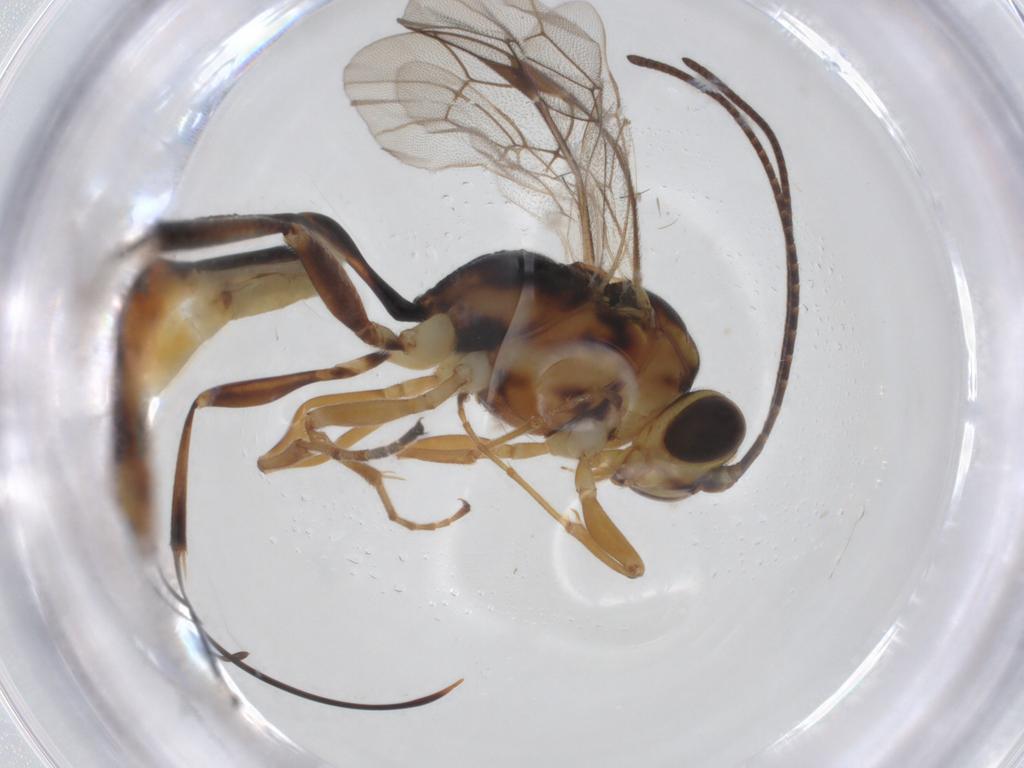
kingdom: Animalia
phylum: Arthropoda
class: Insecta
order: Hymenoptera
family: Ichneumonidae
